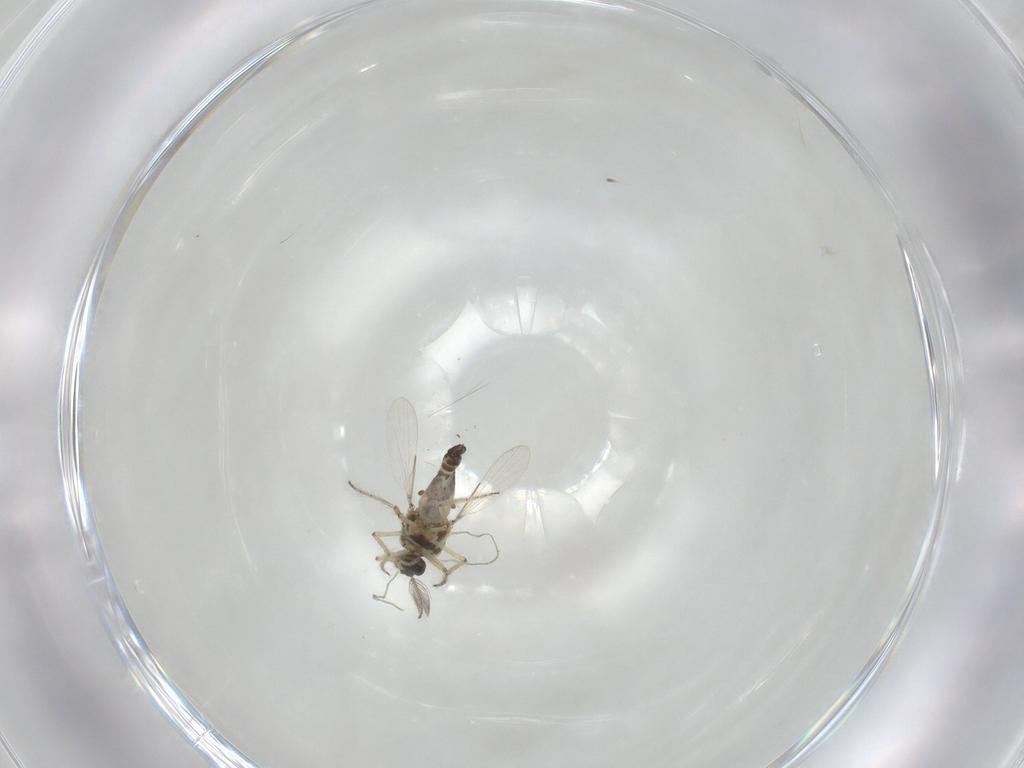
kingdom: Animalia
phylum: Arthropoda
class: Insecta
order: Diptera
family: Ceratopogonidae
